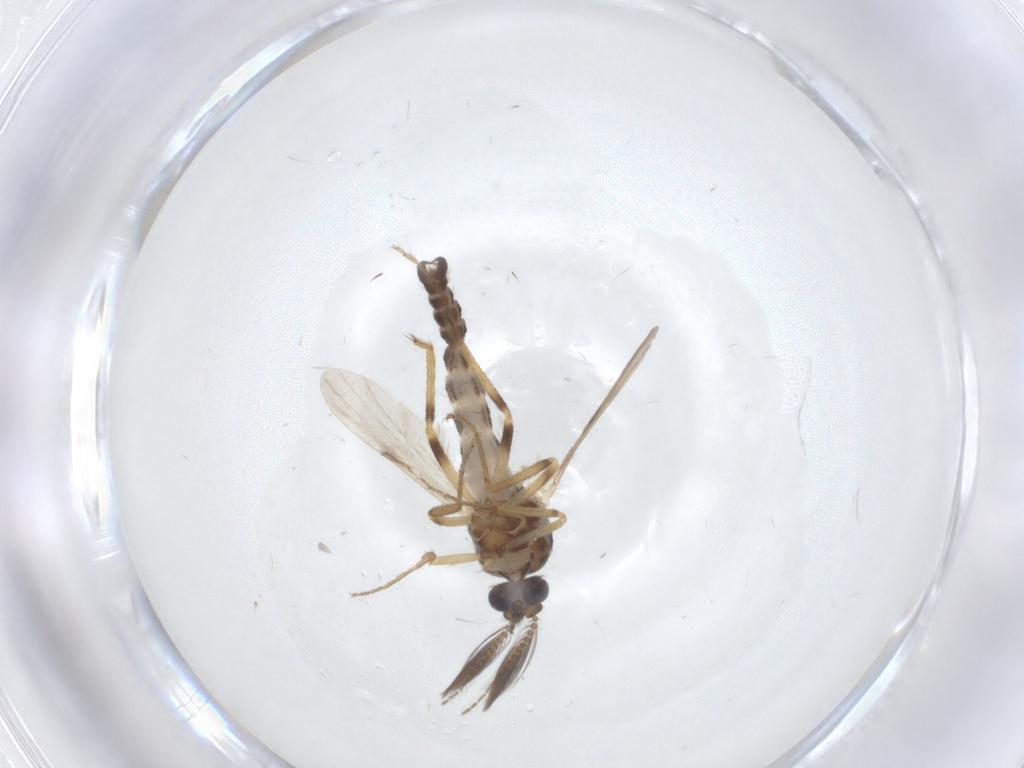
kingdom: Animalia
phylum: Arthropoda
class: Insecta
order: Diptera
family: Ceratopogonidae
